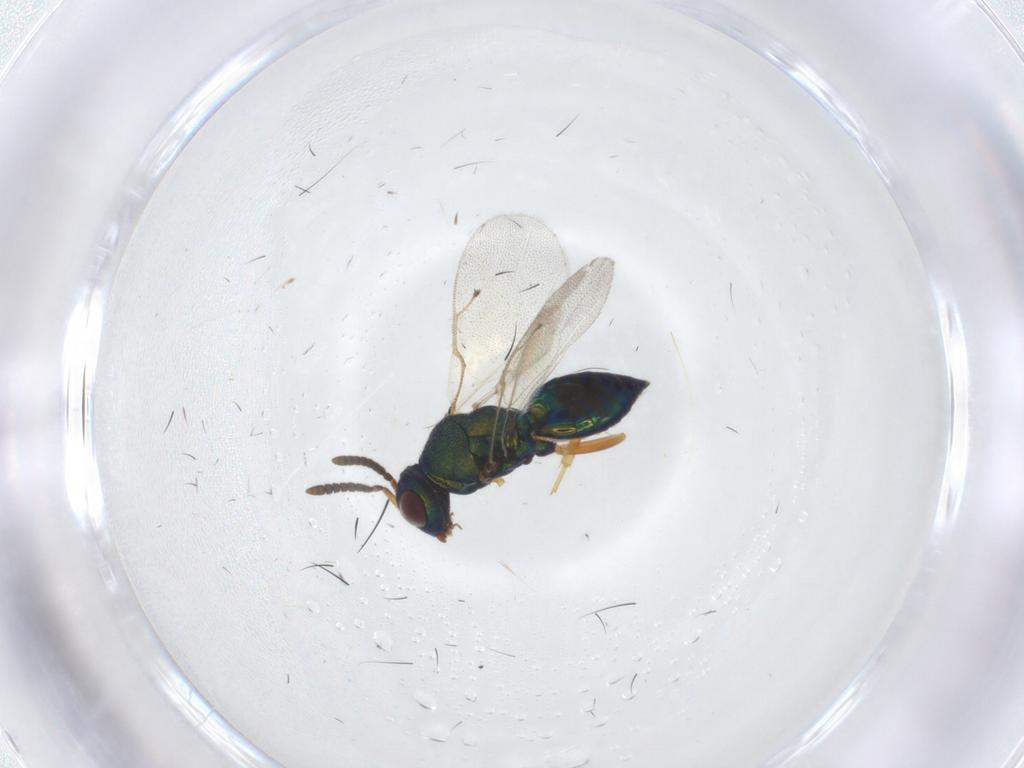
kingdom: Animalia
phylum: Arthropoda
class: Insecta
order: Hymenoptera
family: Pteromalidae
